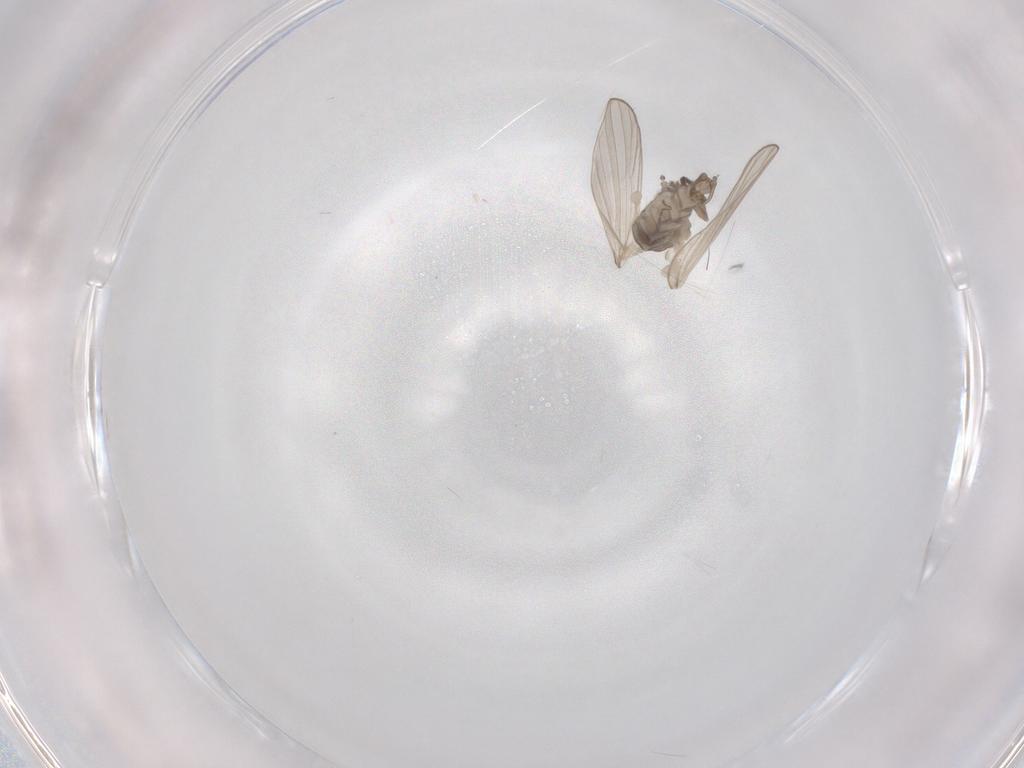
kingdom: Animalia
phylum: Arthropoda
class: Insecta
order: Diptera
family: Psychodidae
